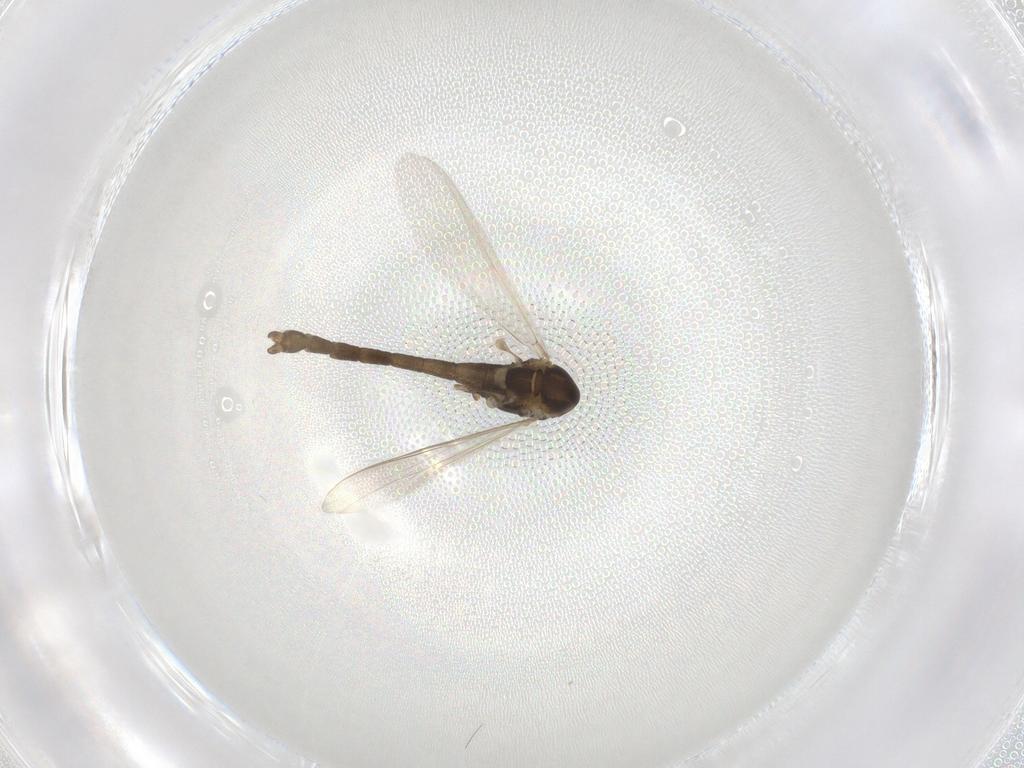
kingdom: Animalia
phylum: Arthropoda
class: Insecta
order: Diptera
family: Chironomidae
